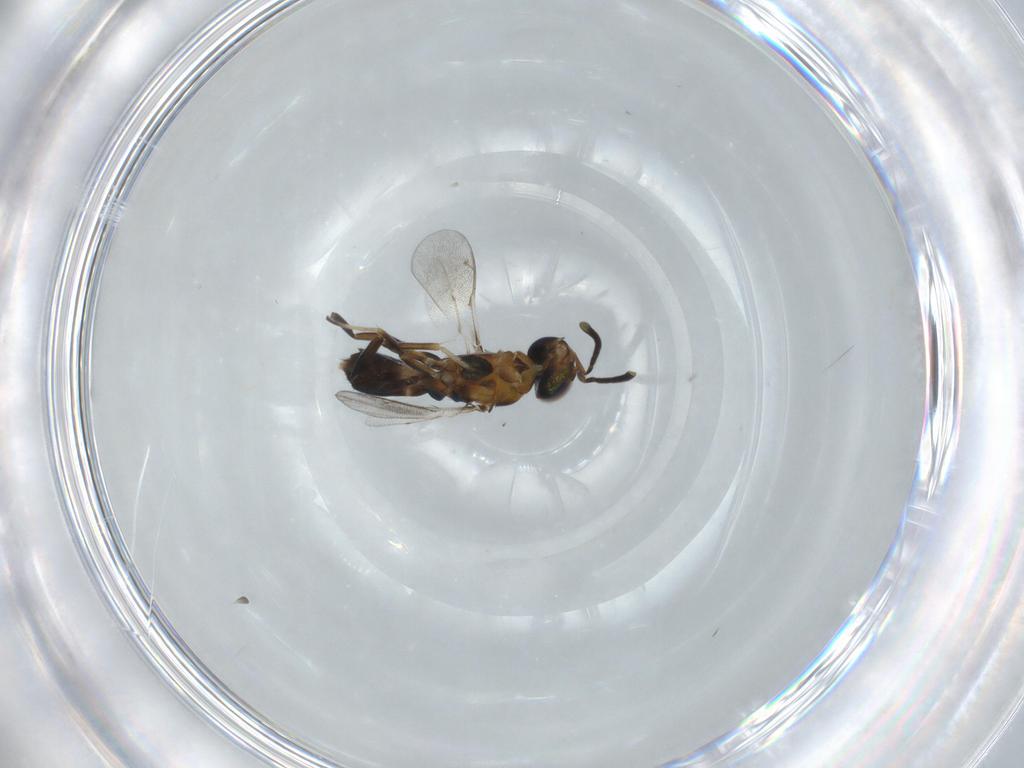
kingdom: Animalia
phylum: Arthropoda
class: Insecta
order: Hymenoptera
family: Eupelmidae
